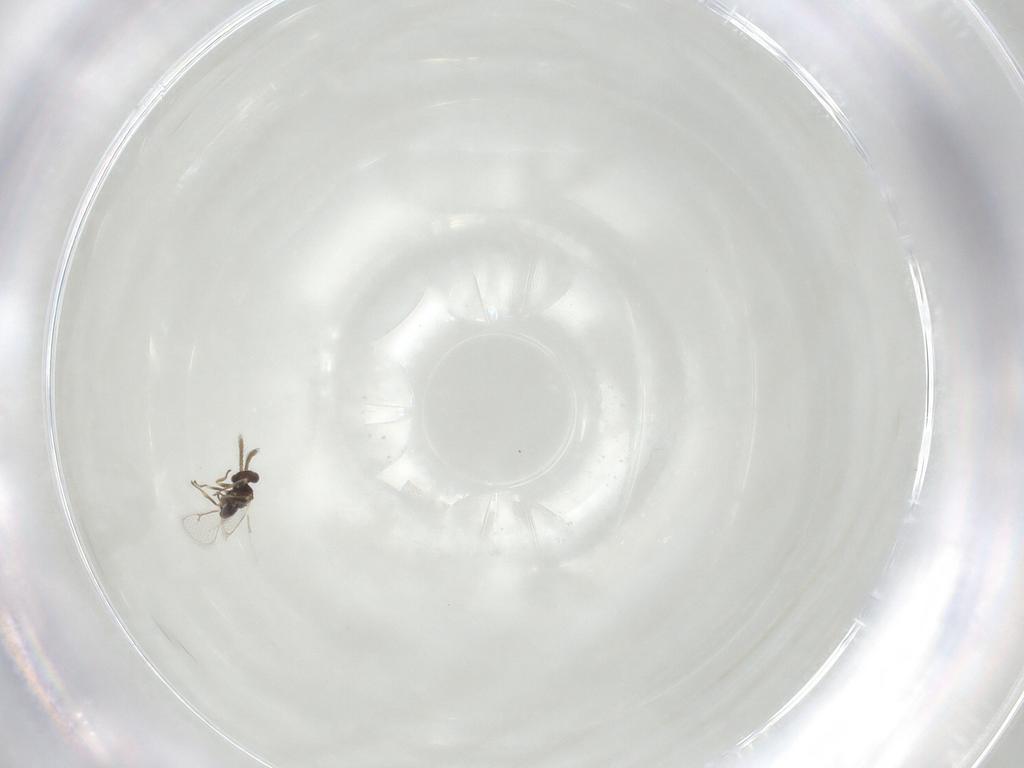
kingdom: Animalia
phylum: Arthropoda
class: Insecta
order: Hymenoptera
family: Eulophidae
